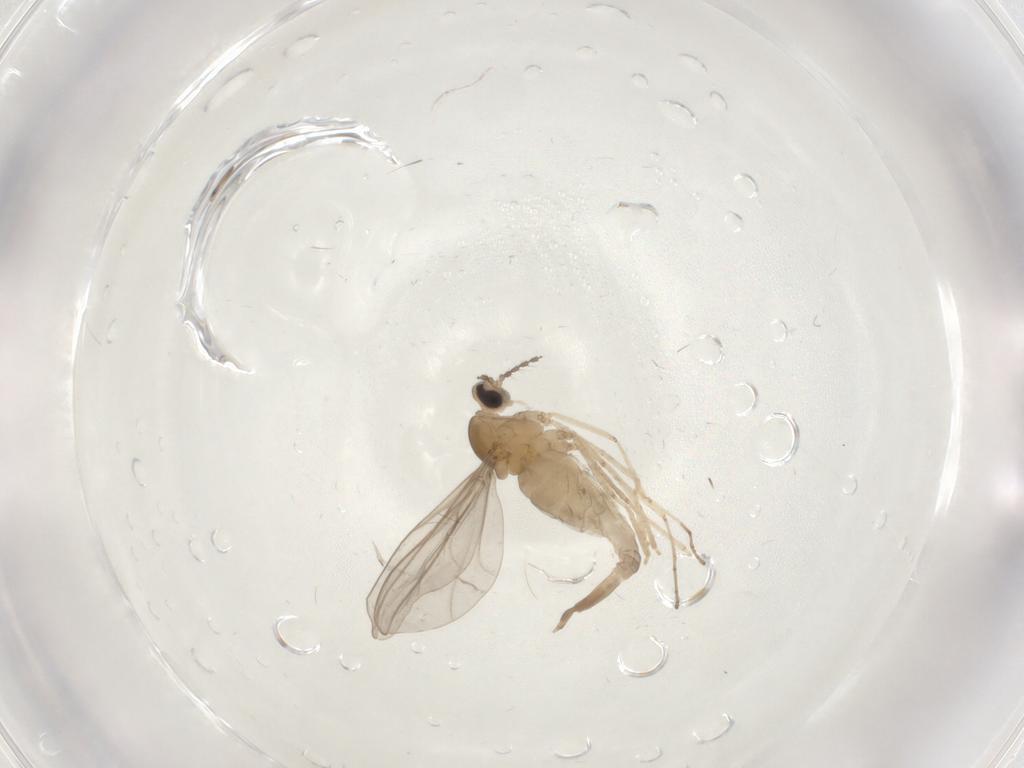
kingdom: Animalia
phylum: Arthropoda
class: Insecta
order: Diptera
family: Cecidomyiidae
